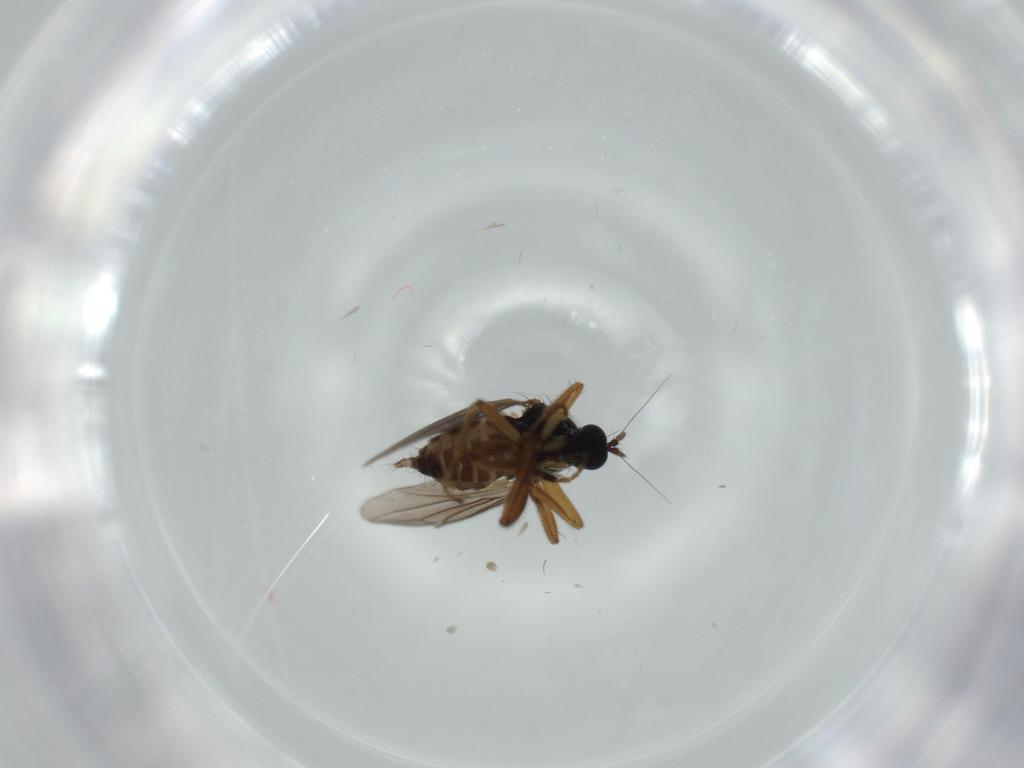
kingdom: Animalia
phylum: Arthropoda
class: Insecta
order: Diptera
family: Hybotidae
